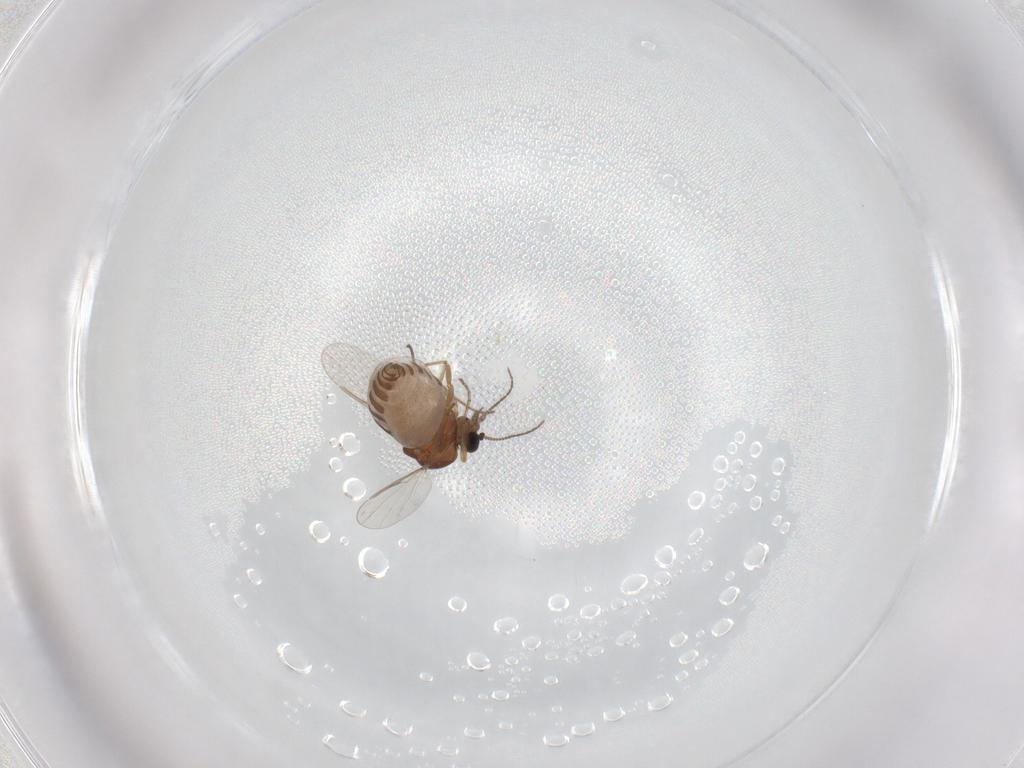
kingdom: Animalia
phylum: Arthropoda
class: Insecta
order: Diptera
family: Ceratopogonidae
